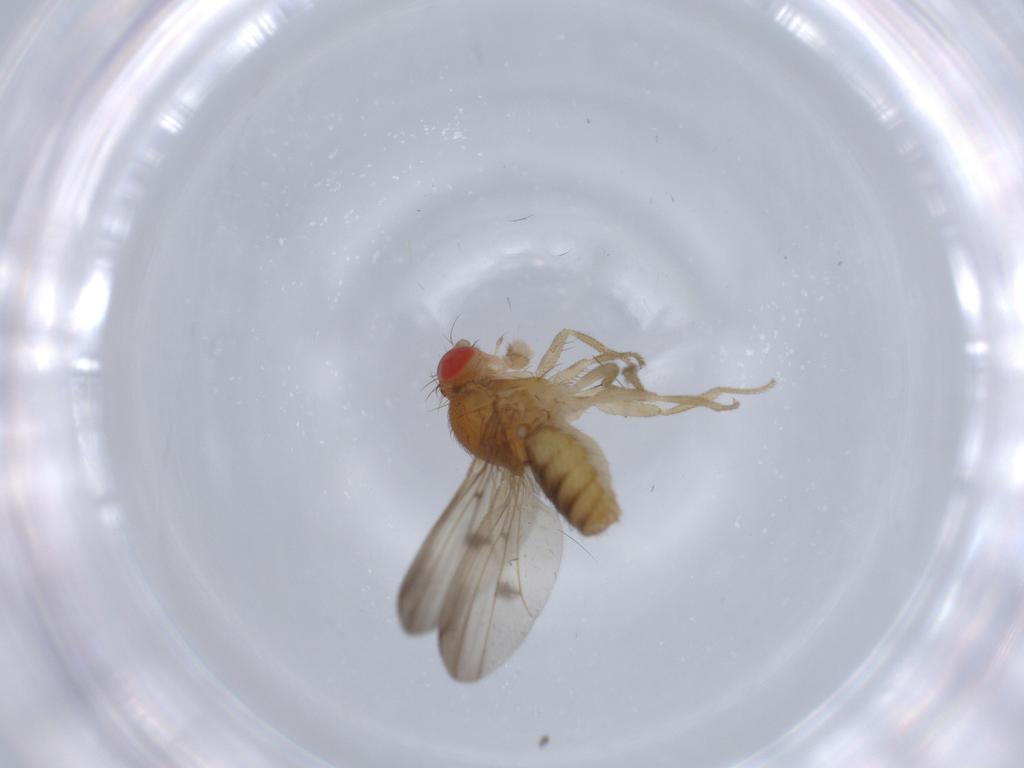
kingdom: Animalia
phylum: Arthropoda
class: Insecta
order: Diptera
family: Drosophilidae
